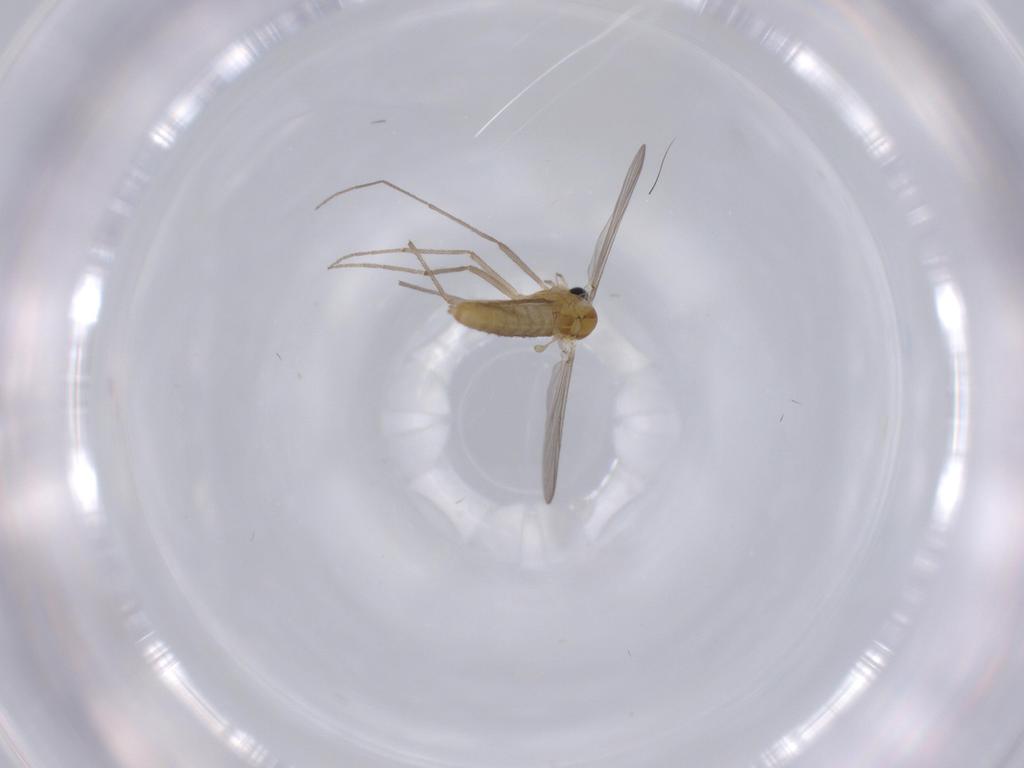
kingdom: Animalia
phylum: Arthropoda
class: Insecta
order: Diptera
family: Chironomidae
